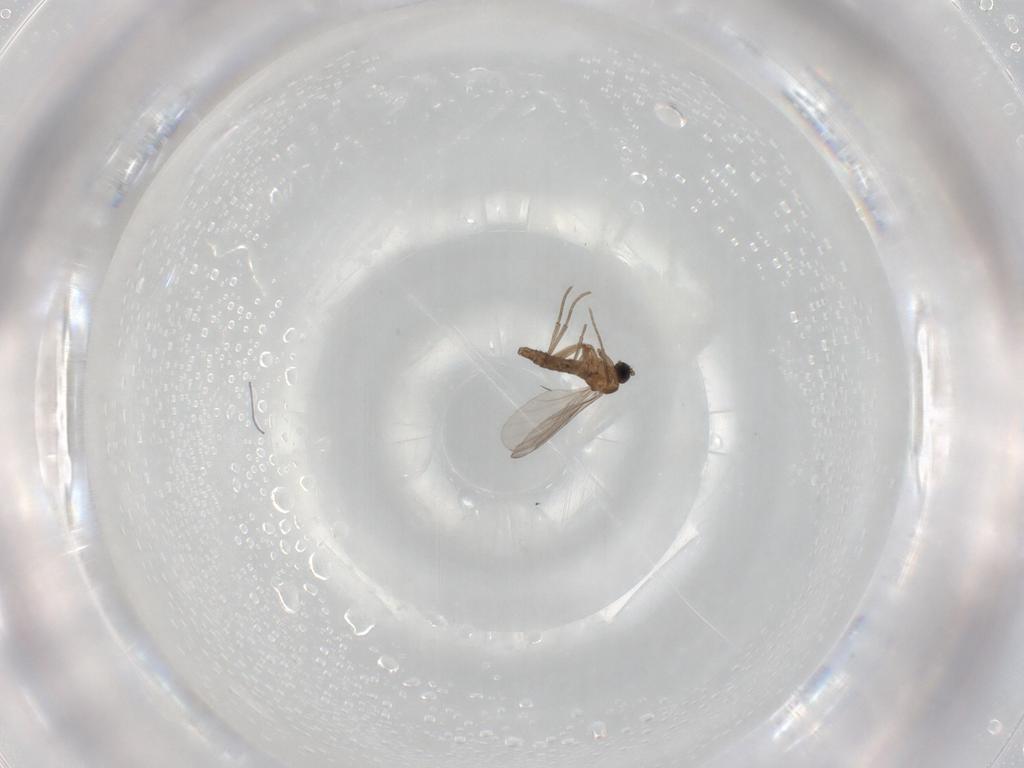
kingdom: Animalia
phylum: Arthropoda
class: Insecta
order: Diptera
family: Sciaridae
